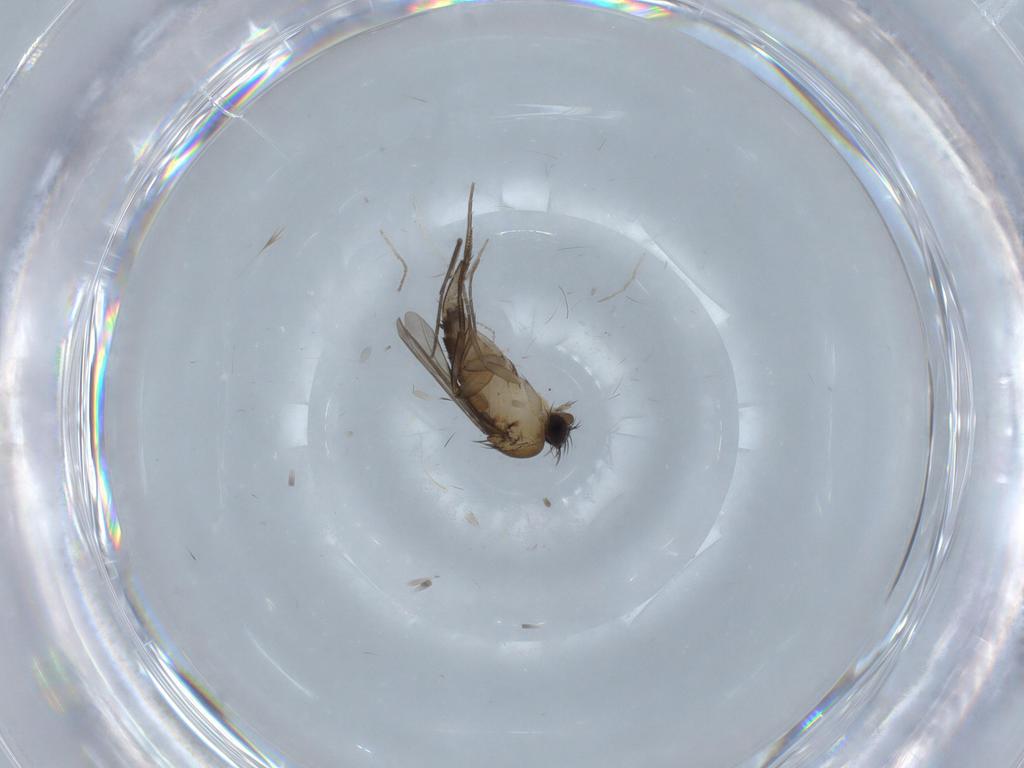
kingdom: Animalia
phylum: Arthropoda
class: Insecta
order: Diptera
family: Phoridae
